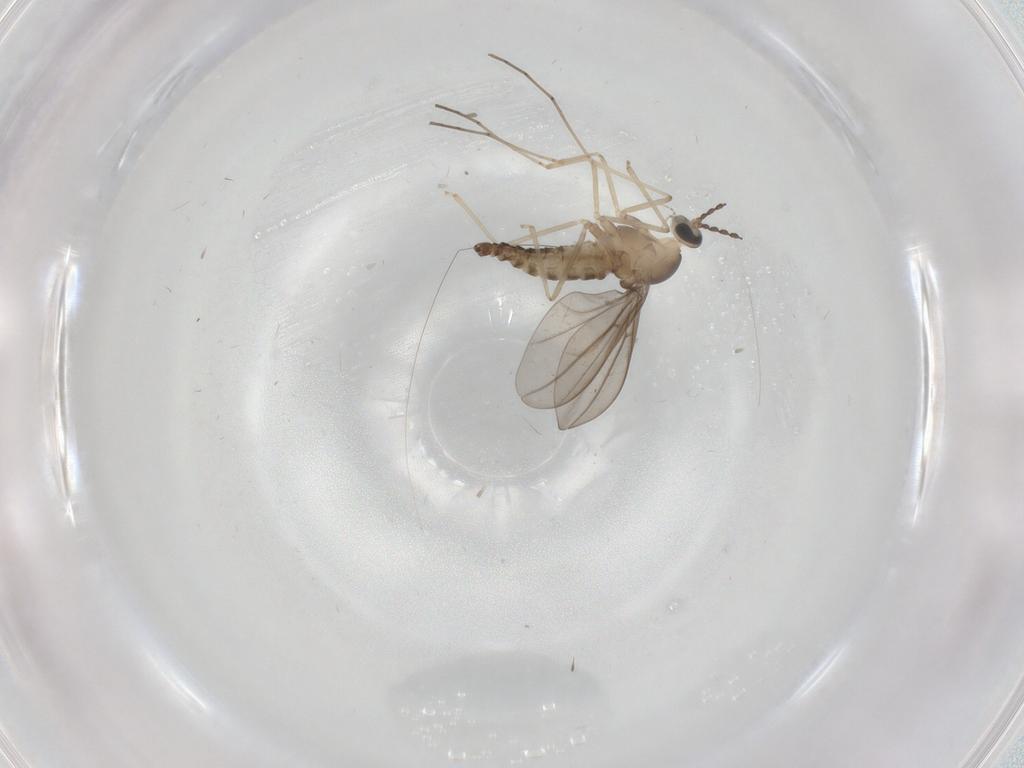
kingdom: Animalia
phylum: Arthropoda
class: Insecta
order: Diptera
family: Cecidomyiidae
